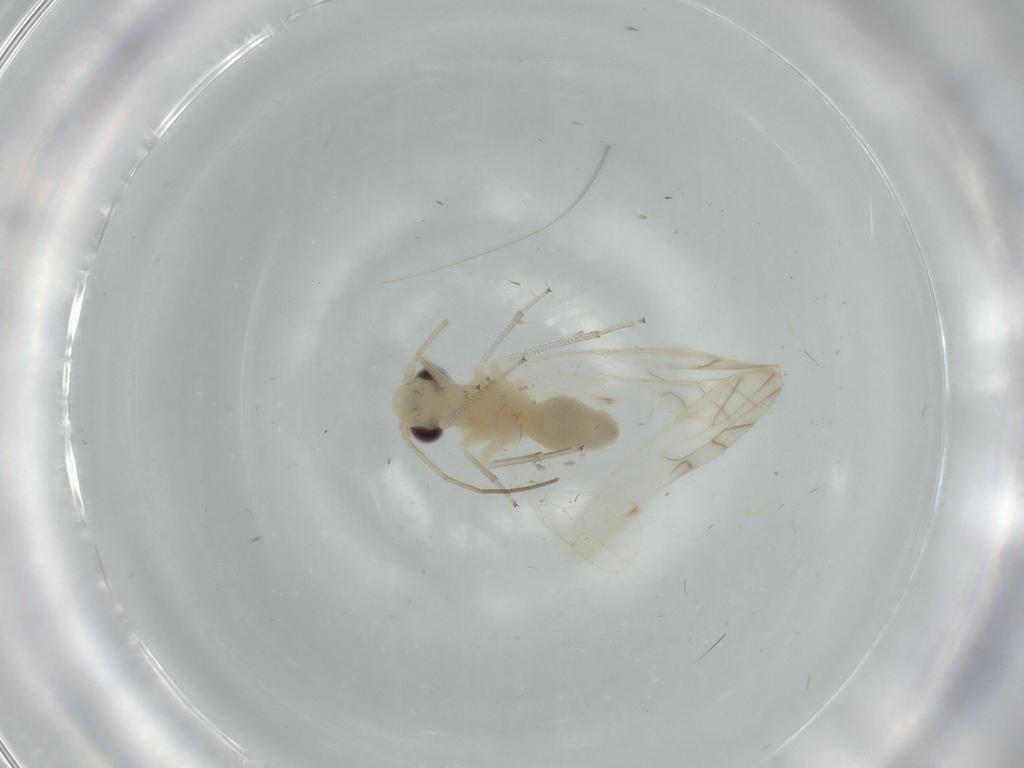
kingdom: Animalia
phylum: Arthropoda
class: Insecta
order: Psocodea
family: Caeciliusidae
